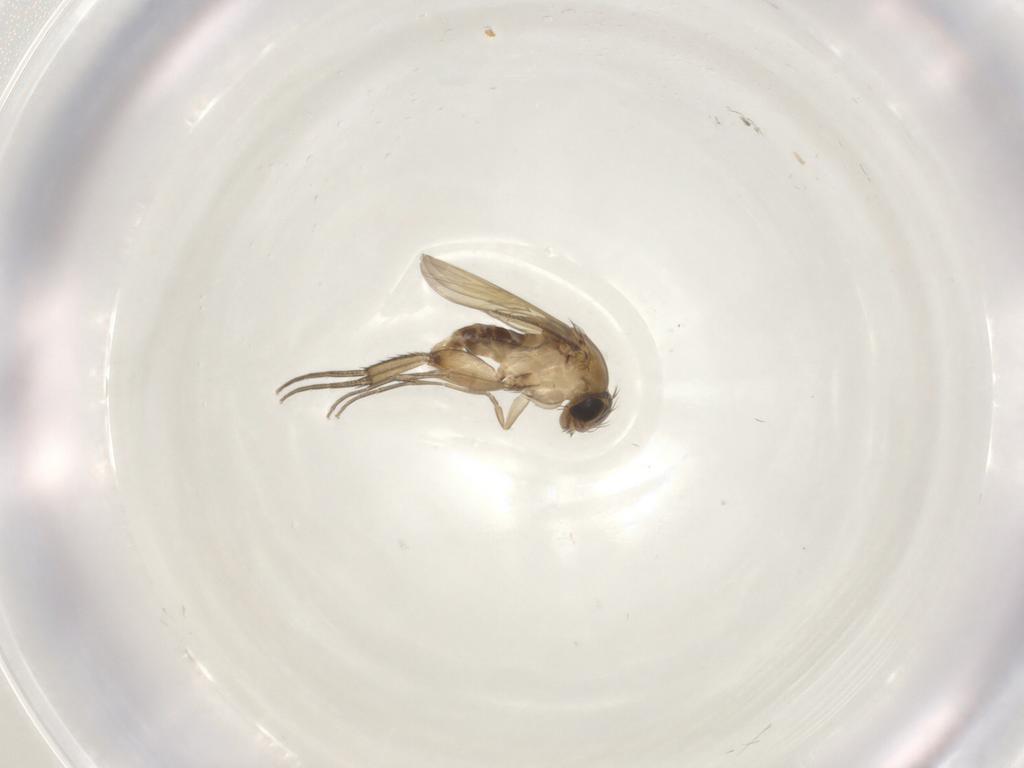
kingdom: Animalia
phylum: Arthropoda
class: Insecta
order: Diptera
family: Phoridae
